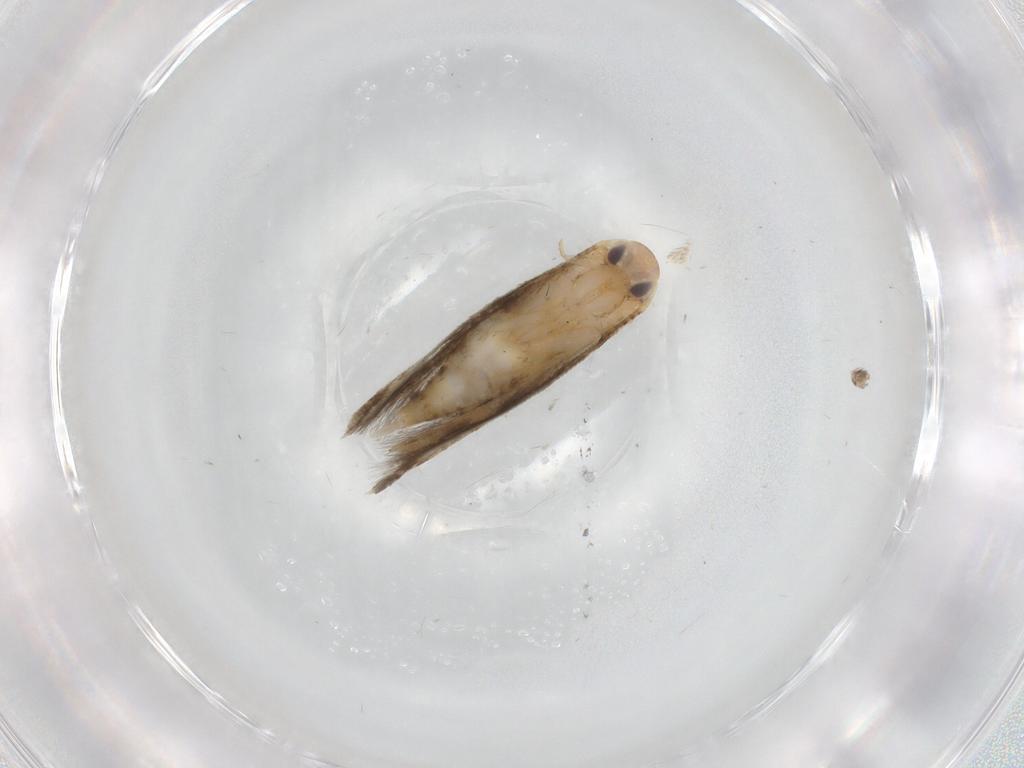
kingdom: Animalia
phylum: Arthropoda
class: Insecta
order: Lepidoptera
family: Momphidae
